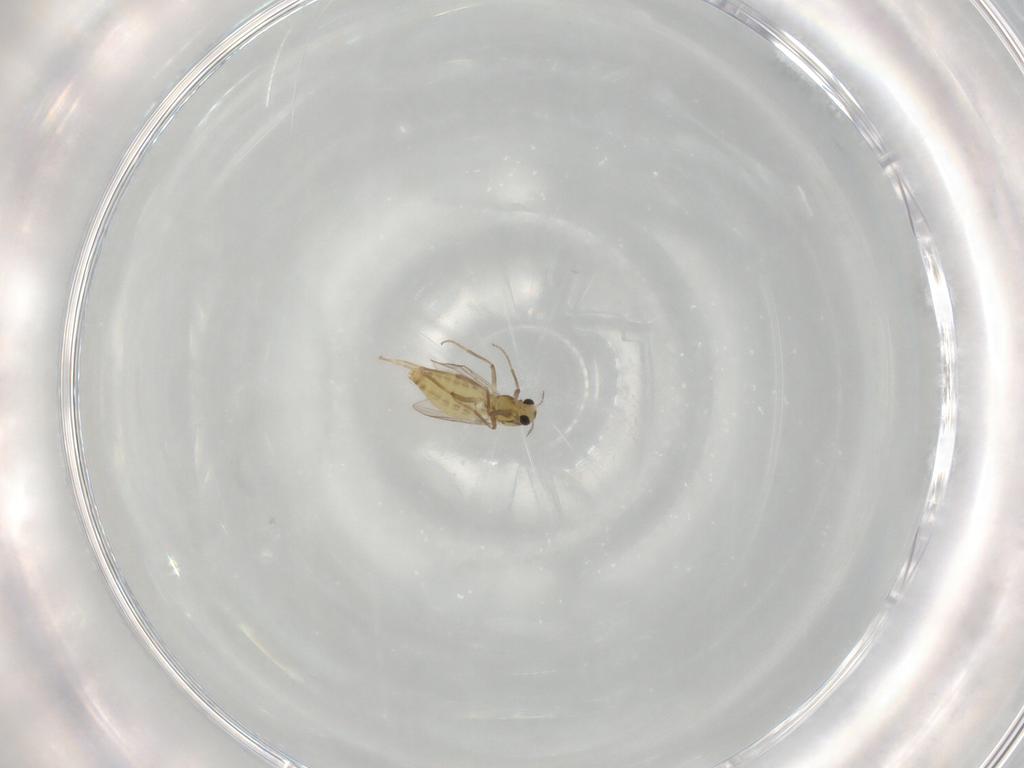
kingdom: Animalia
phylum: Arthropoda
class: Insecta
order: Diptera
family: Chironomidae
